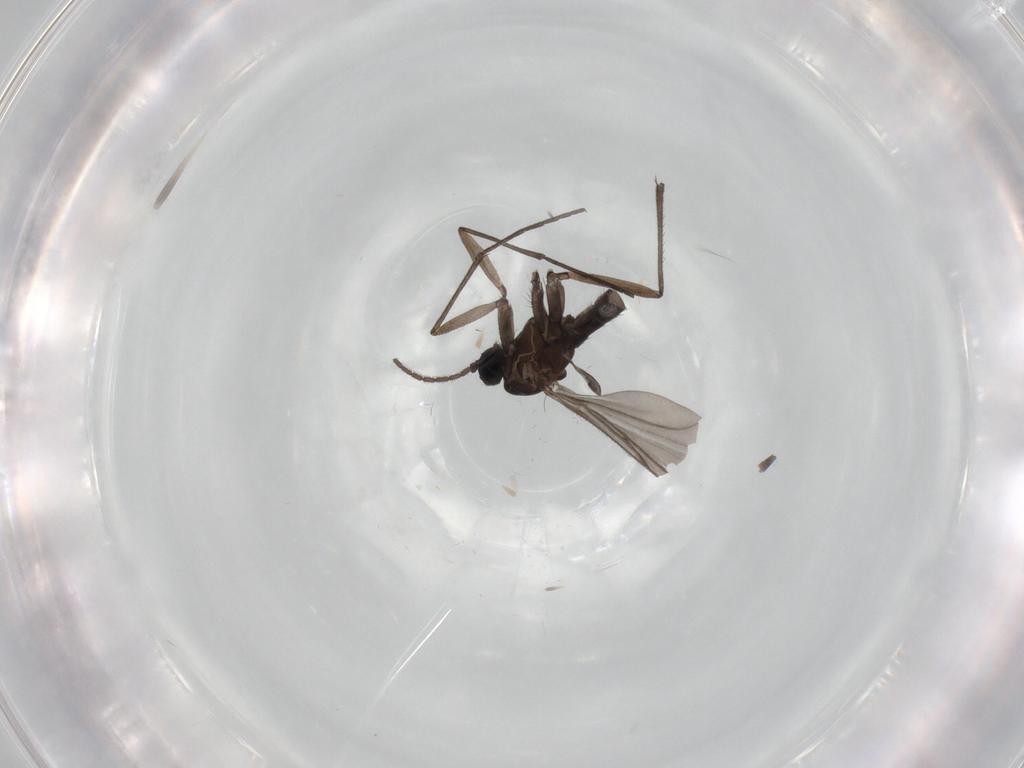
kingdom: Animalia
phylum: Arthropoda
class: Insecta
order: Diptera
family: Sciaridae
